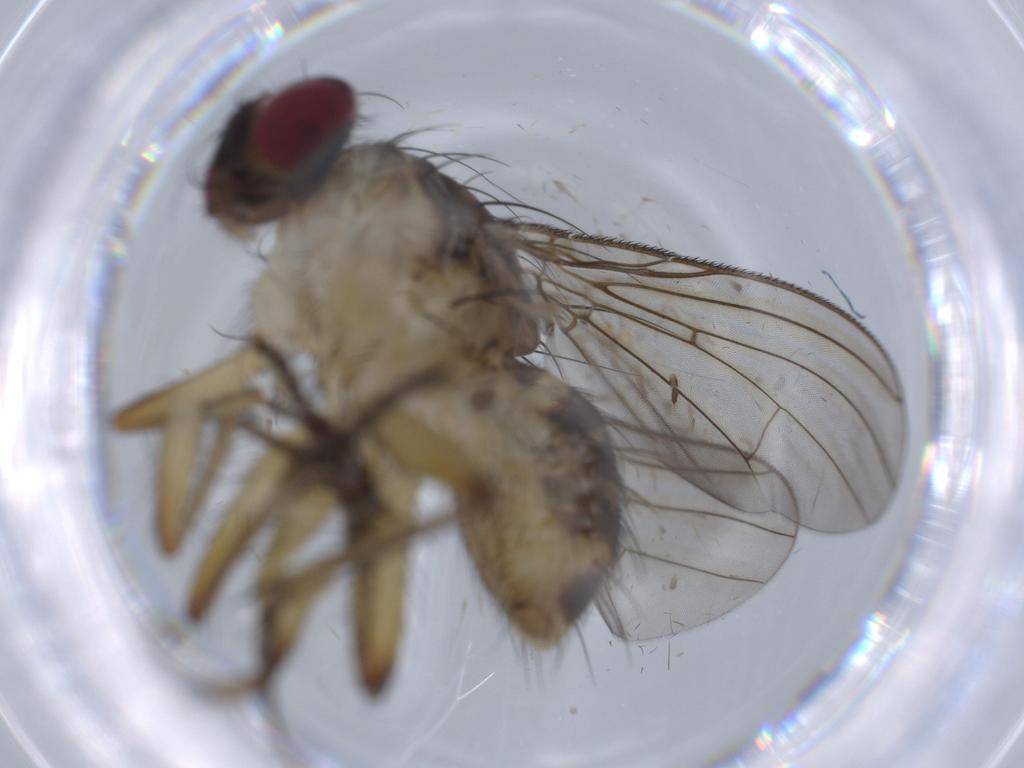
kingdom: Animalia
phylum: Arthropoda
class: Insecta
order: Diptera
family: Muscidae
